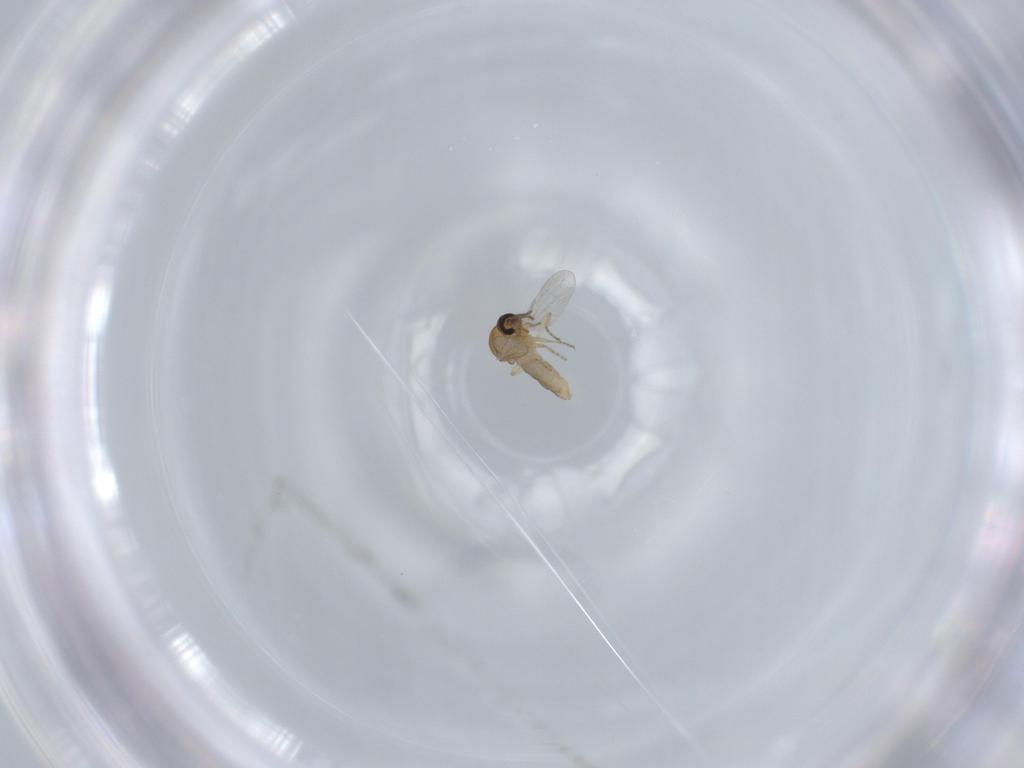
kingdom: Animalia
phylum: Arthropoda
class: Insecta
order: Diptera
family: Ceratopogonidae
